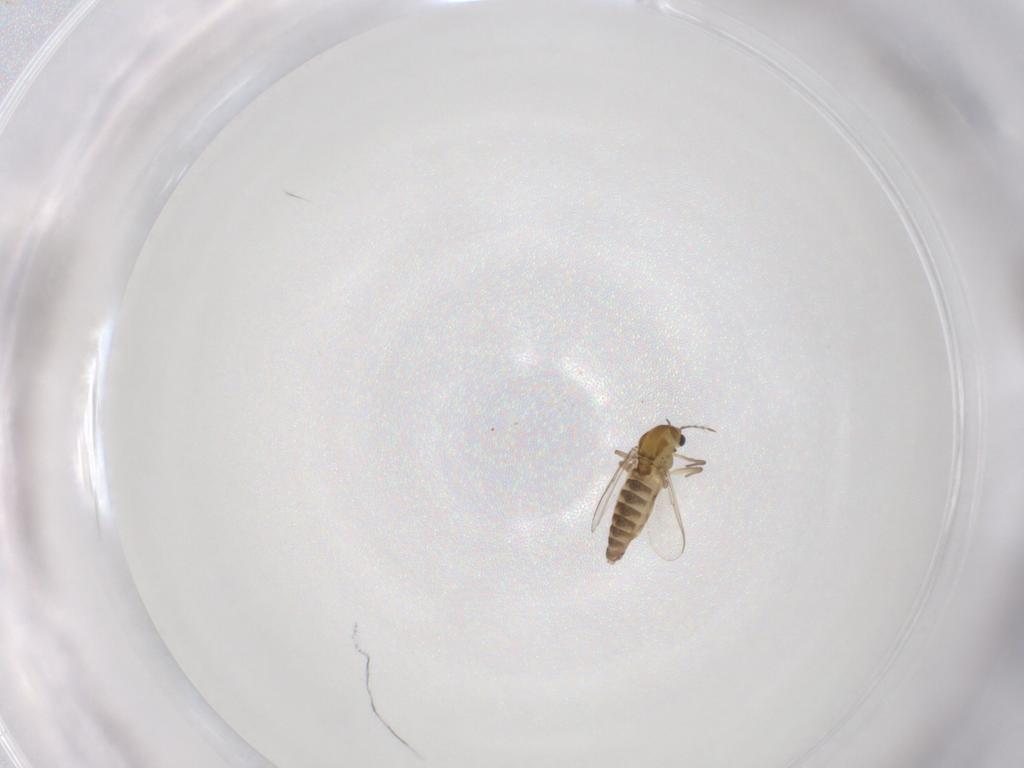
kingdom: Animalia
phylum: Arthropoda
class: Insecta
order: Diptera
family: Chironomidae
